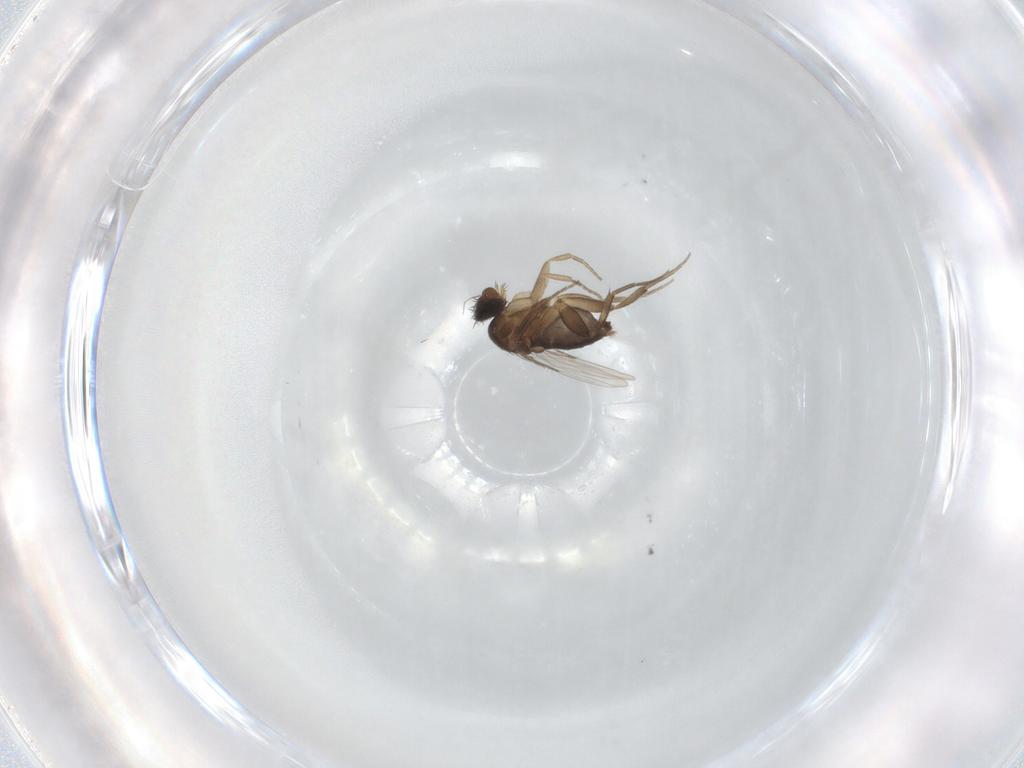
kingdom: Animalia
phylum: Arthropoda
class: Insecta
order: Diptera
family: Phoridae
